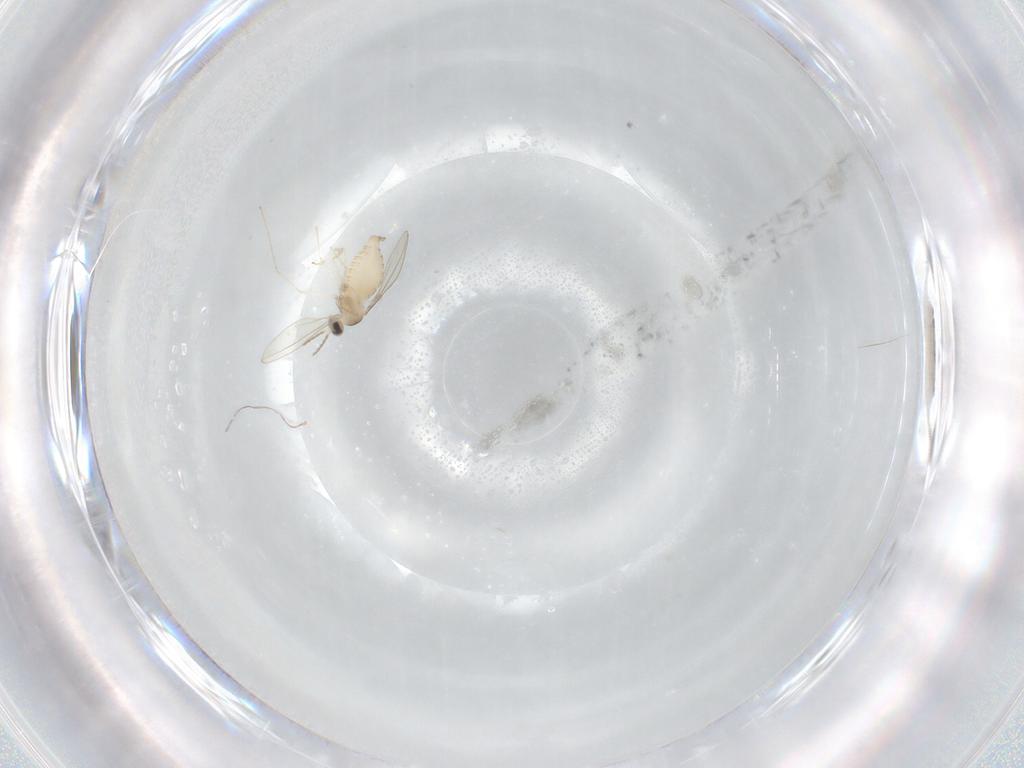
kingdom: Animalia
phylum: Arthropoda
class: Insecta
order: Diptera
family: Cecidomyiidae
